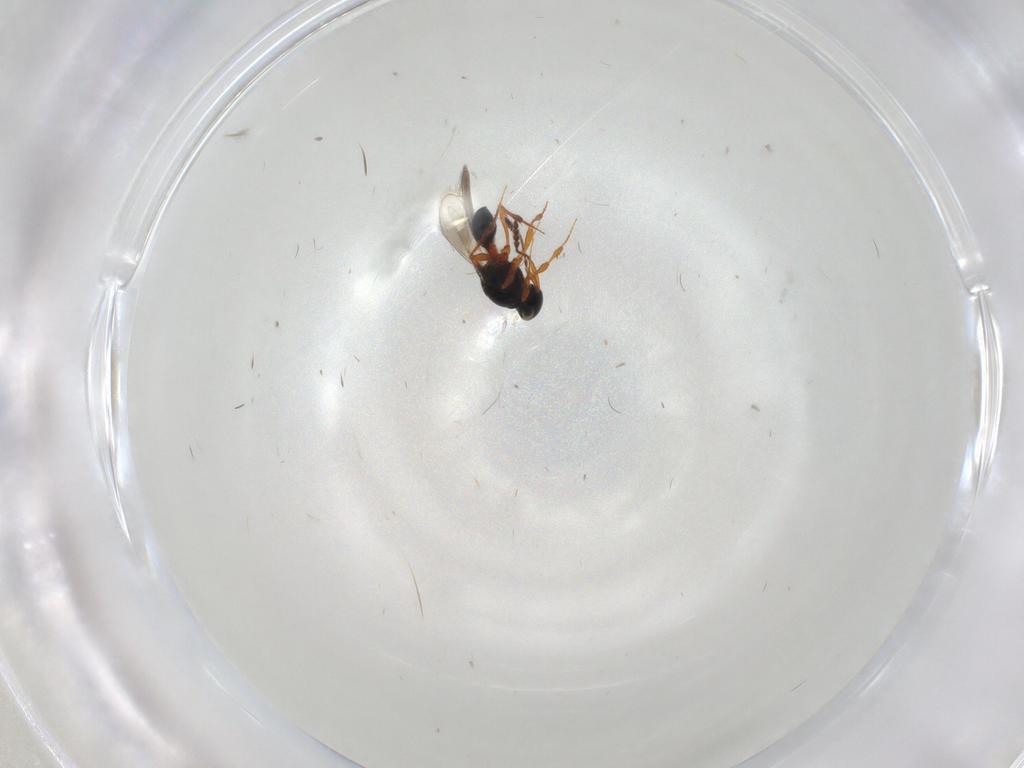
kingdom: Animalia
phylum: Arthropoda
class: Insecta
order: Hymenoptera
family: Platygastridae
